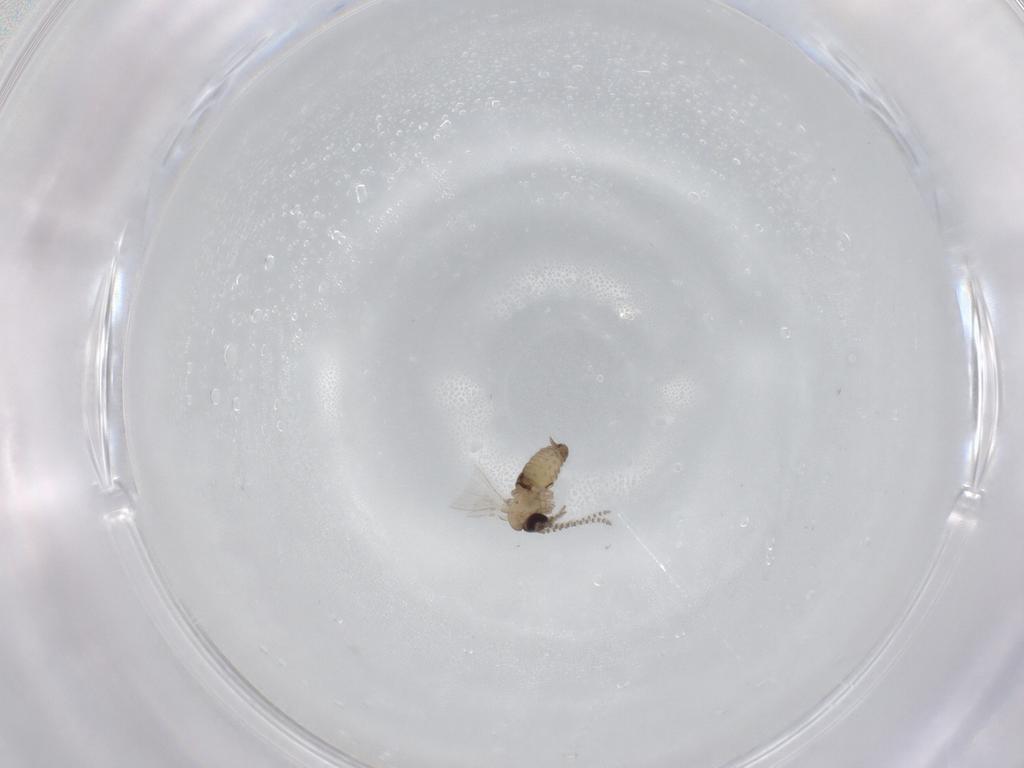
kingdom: Animalia
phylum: Arthropoda
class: Insecta
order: Diptera
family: Psychodidae
